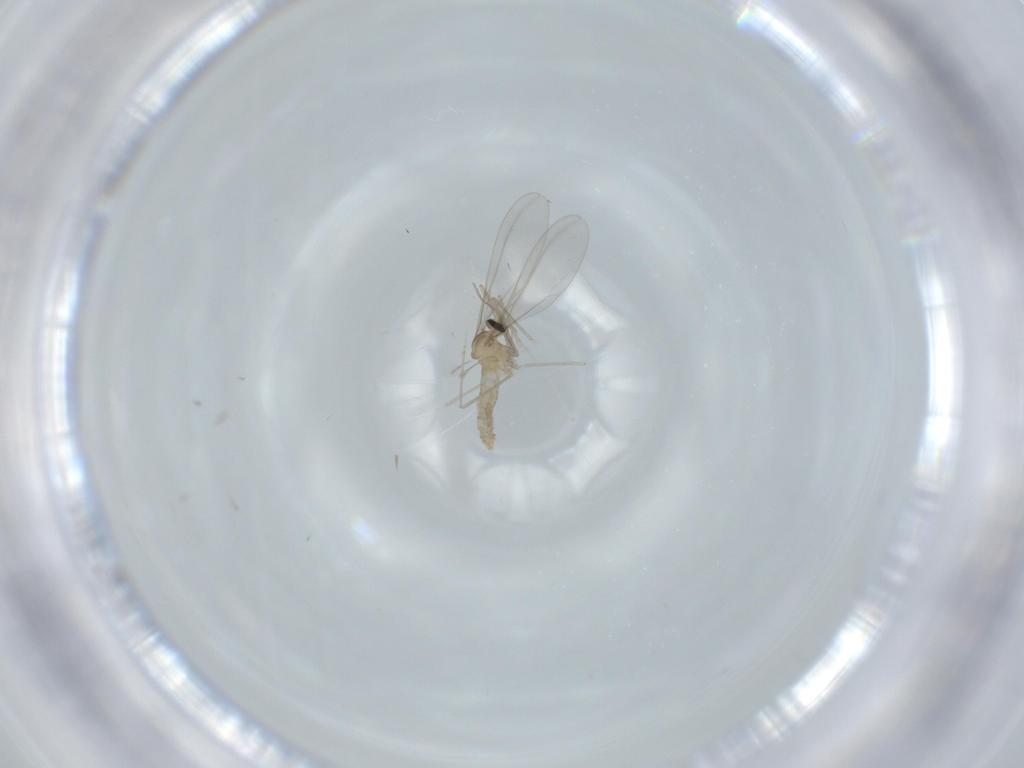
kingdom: Animalia
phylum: Arthropoda
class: Insecta
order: Diptera
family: Cecidomyiidae
